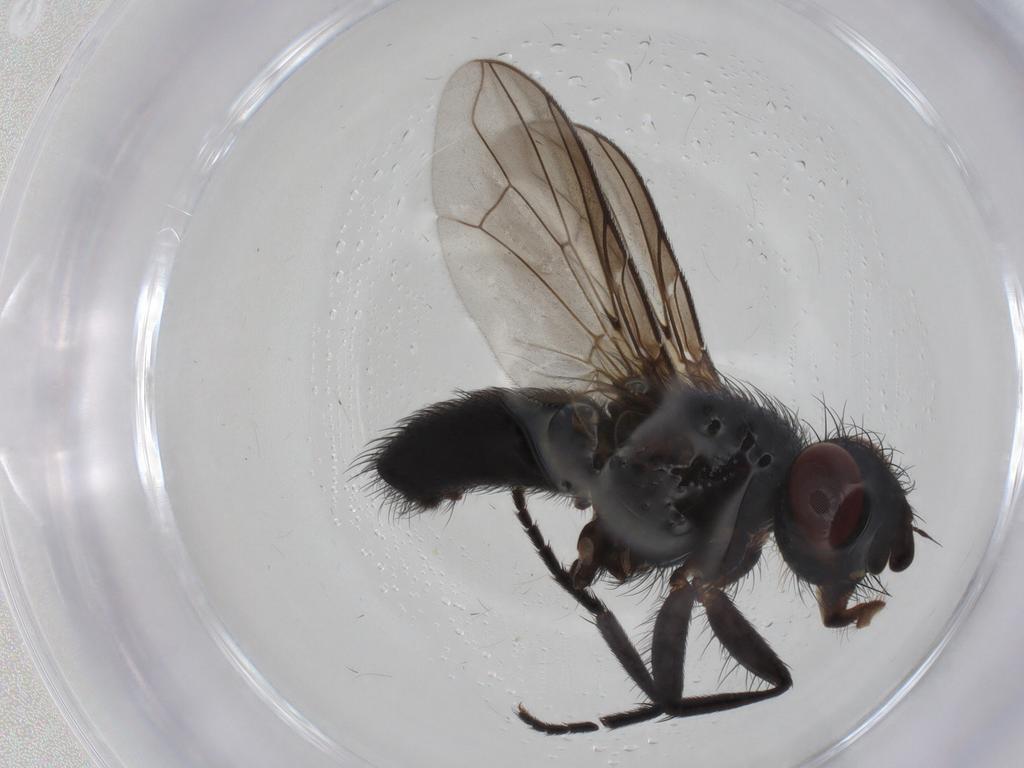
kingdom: Animalia
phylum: Arthropoda
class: Insecta
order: Diptera
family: Tachinidae
